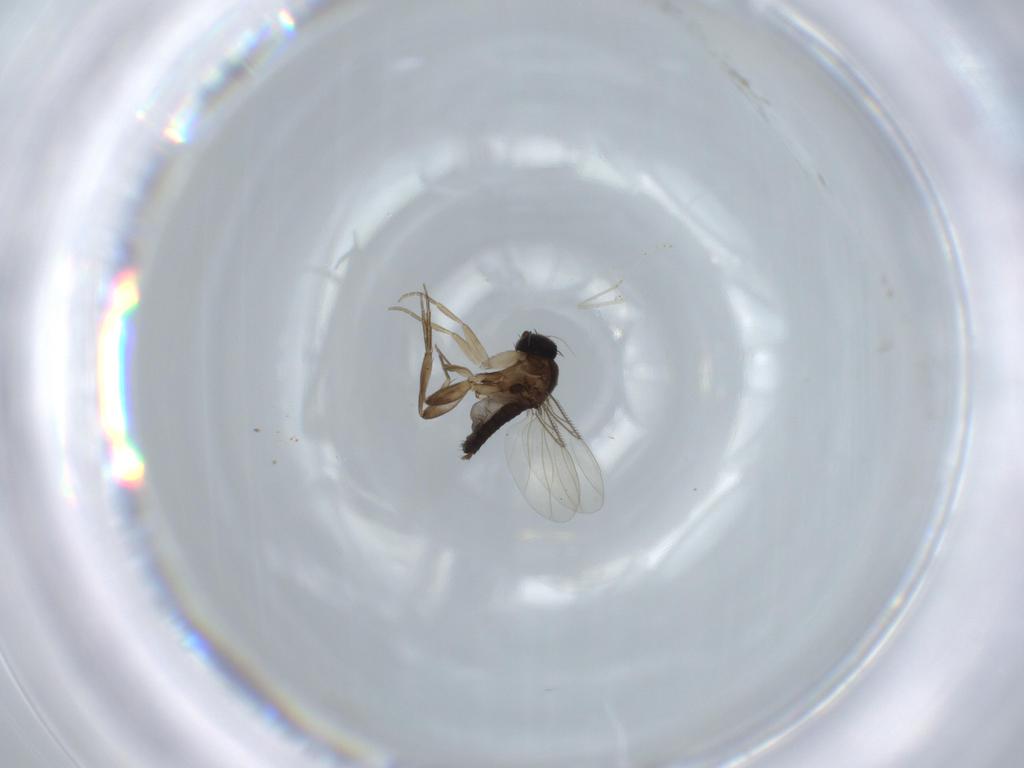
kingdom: Animalia
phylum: Arthropoda
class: Insecta
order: Diptera
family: Phoridae
